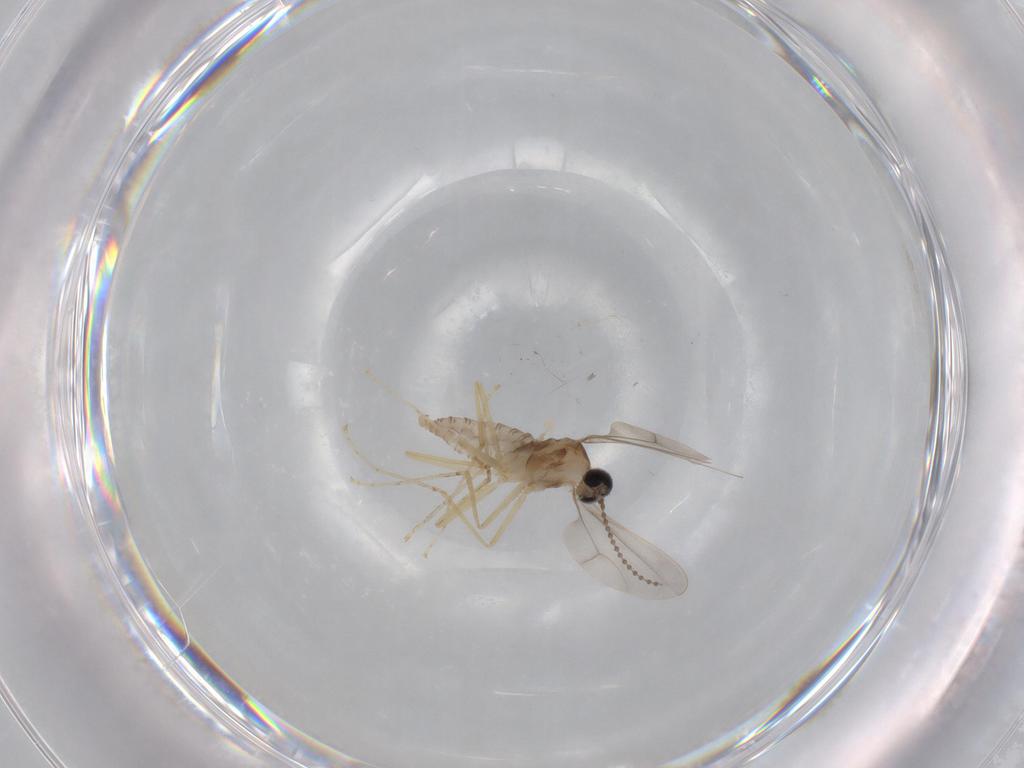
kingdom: Animalia
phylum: Arthropoda
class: Insecta
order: Diptera
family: Cecidomyiidae
